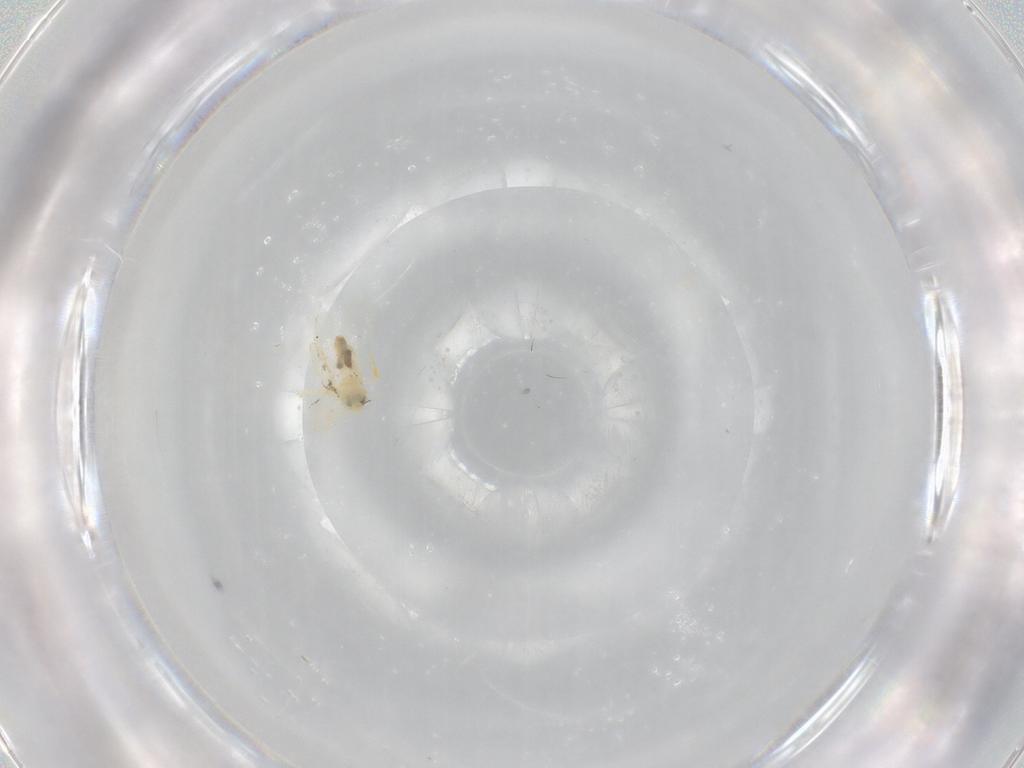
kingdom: Animalia
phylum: Arthropoda
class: Insecta
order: Hemiptera
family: Aleyrodidae
